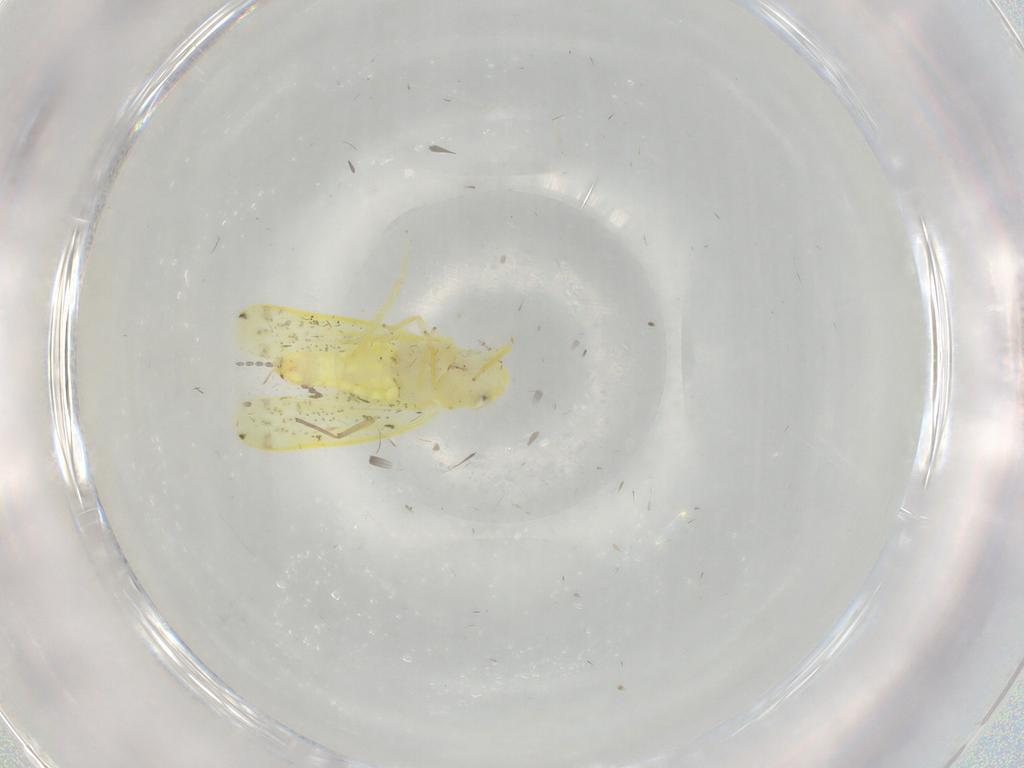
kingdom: Animalia
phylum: Arthropoda
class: Insecta
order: Hemiptera
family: Cicadellidae
